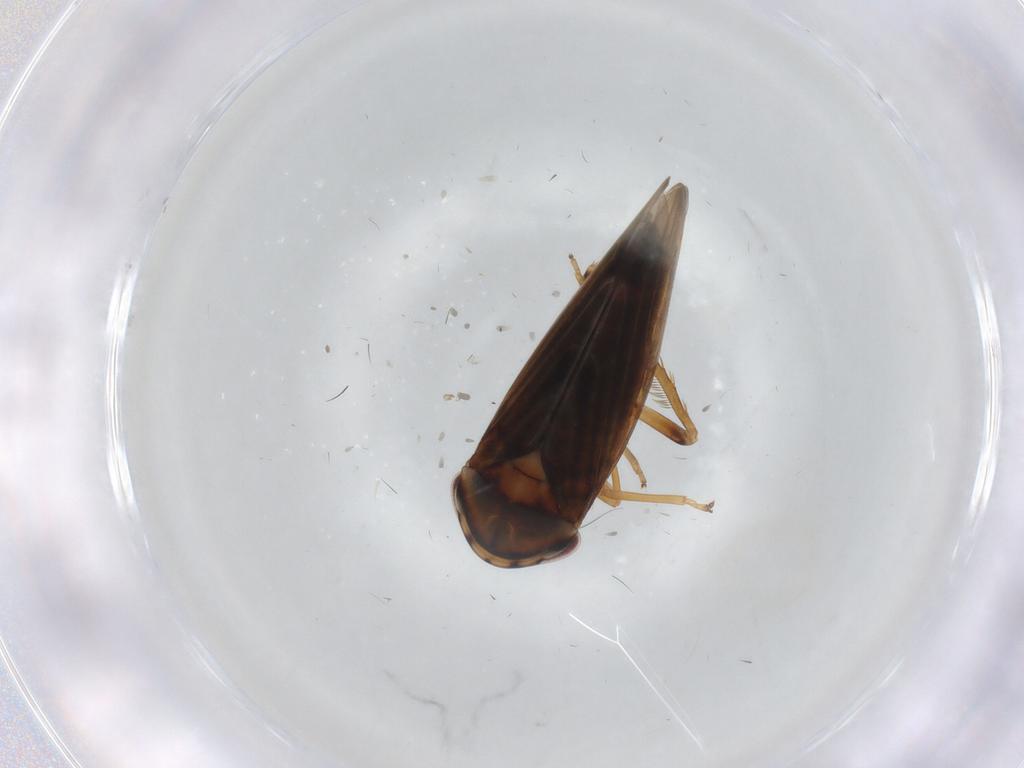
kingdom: Animalia
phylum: Arthropoda
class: Insecta
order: Hemiptera
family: Cicadellidae
